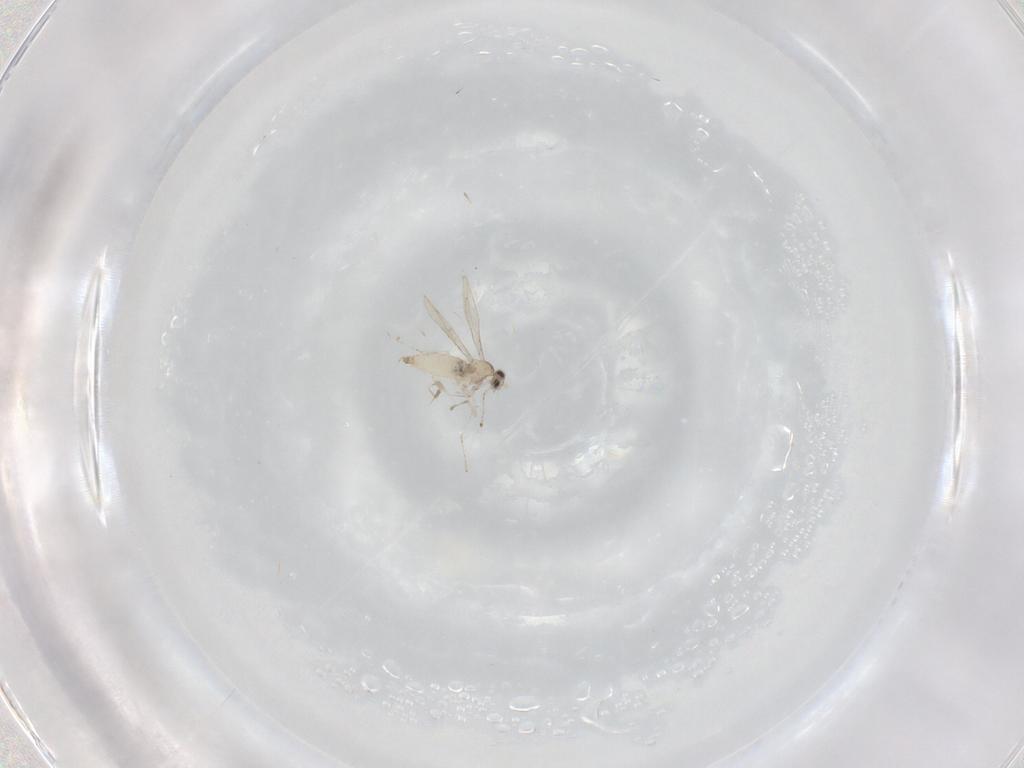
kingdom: Animalia
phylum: Arthropoda
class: Insecta
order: Diptera
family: Cecidomyiidae
